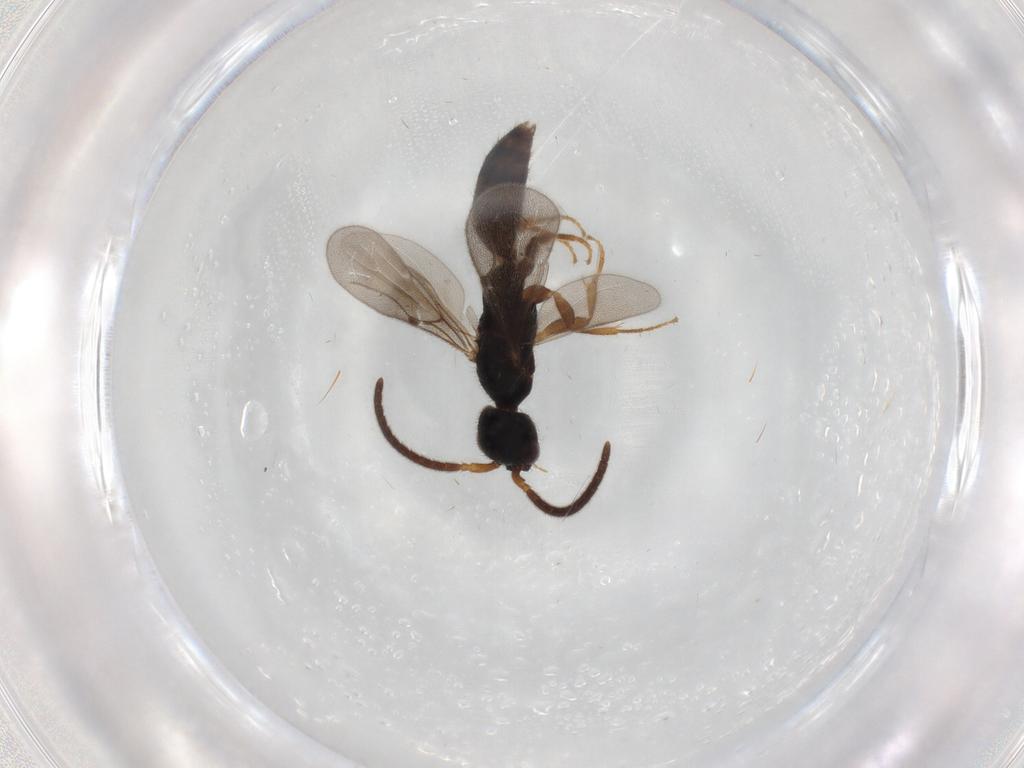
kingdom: Animalia
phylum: Arthropoda
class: Insecta
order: Hymenoptera
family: Bethylidae
